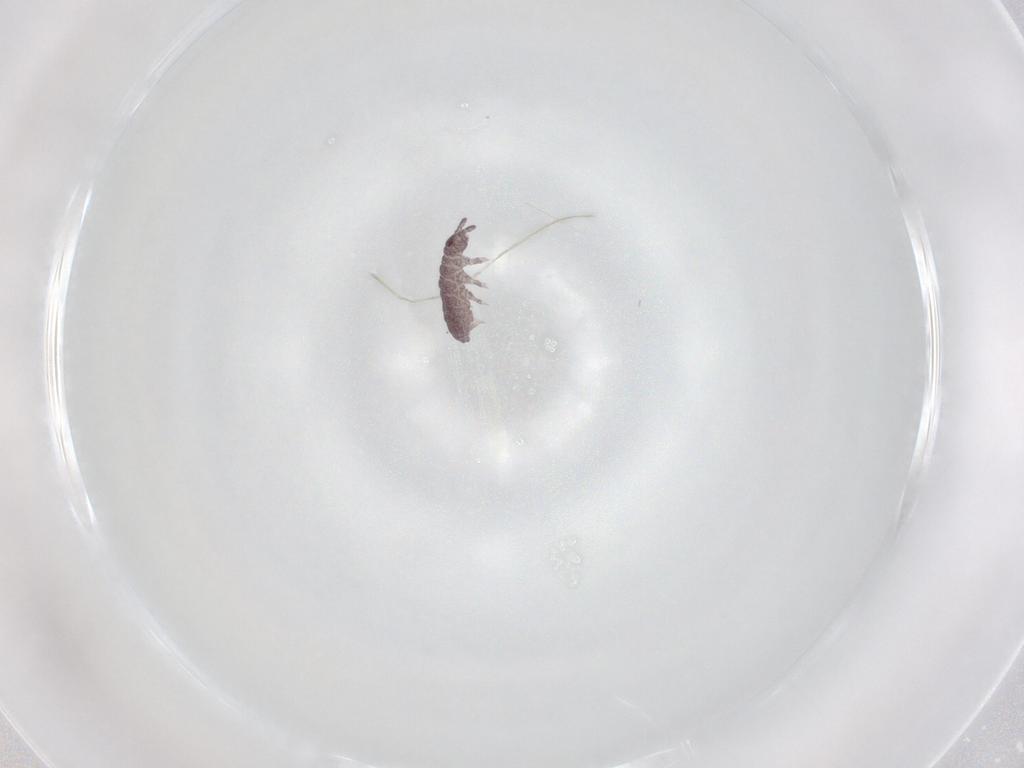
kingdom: Animalia
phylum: Arthropoda
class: Collembola
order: Poduromorpha
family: Brachystomellidae
